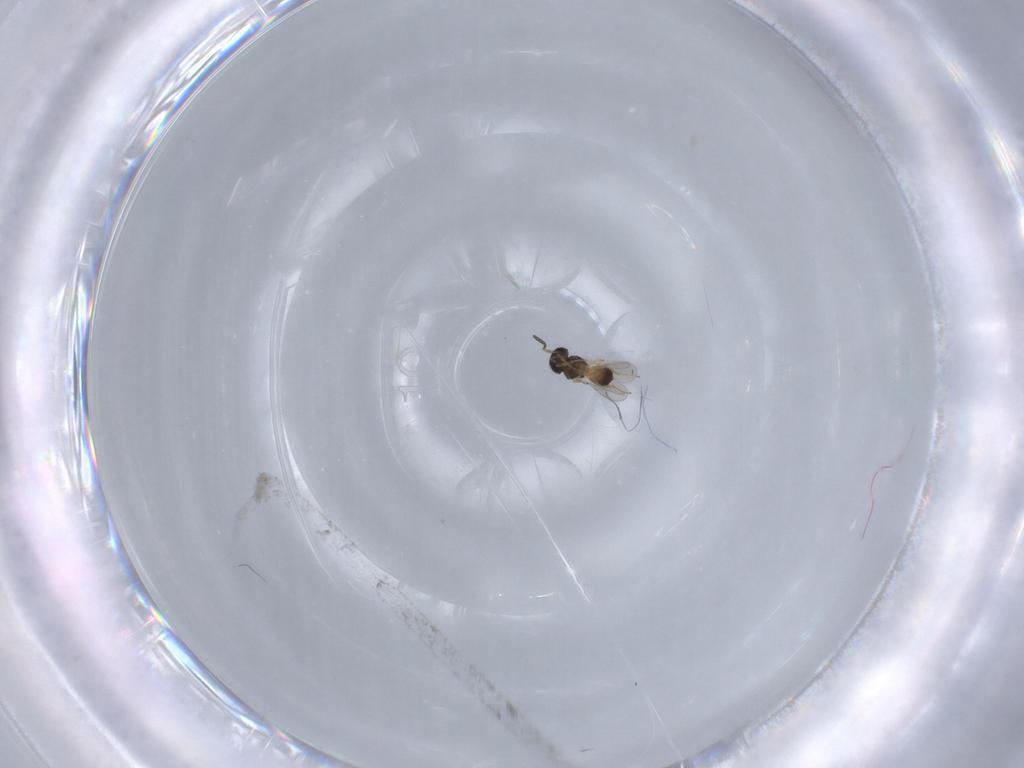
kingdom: Animalia
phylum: Arthropoda
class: Insecta
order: Hymenoptera
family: Scelionidae
